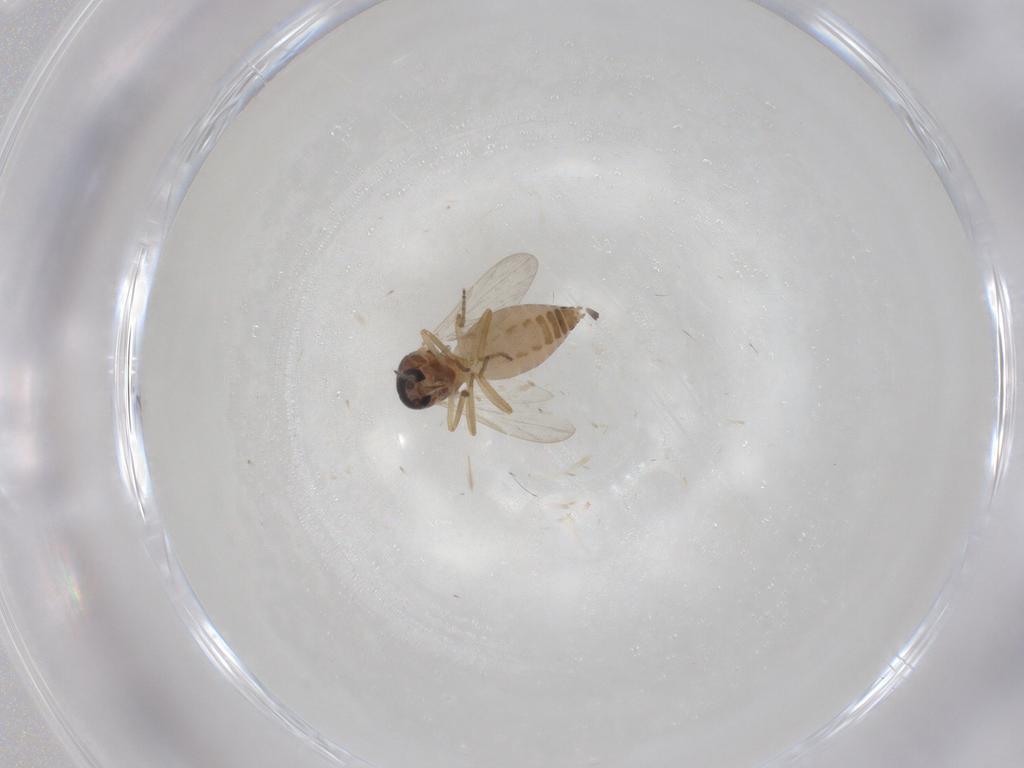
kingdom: Animalia
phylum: Arthropoda
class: Insecta
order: Diptera
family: Ceratopogonidae
